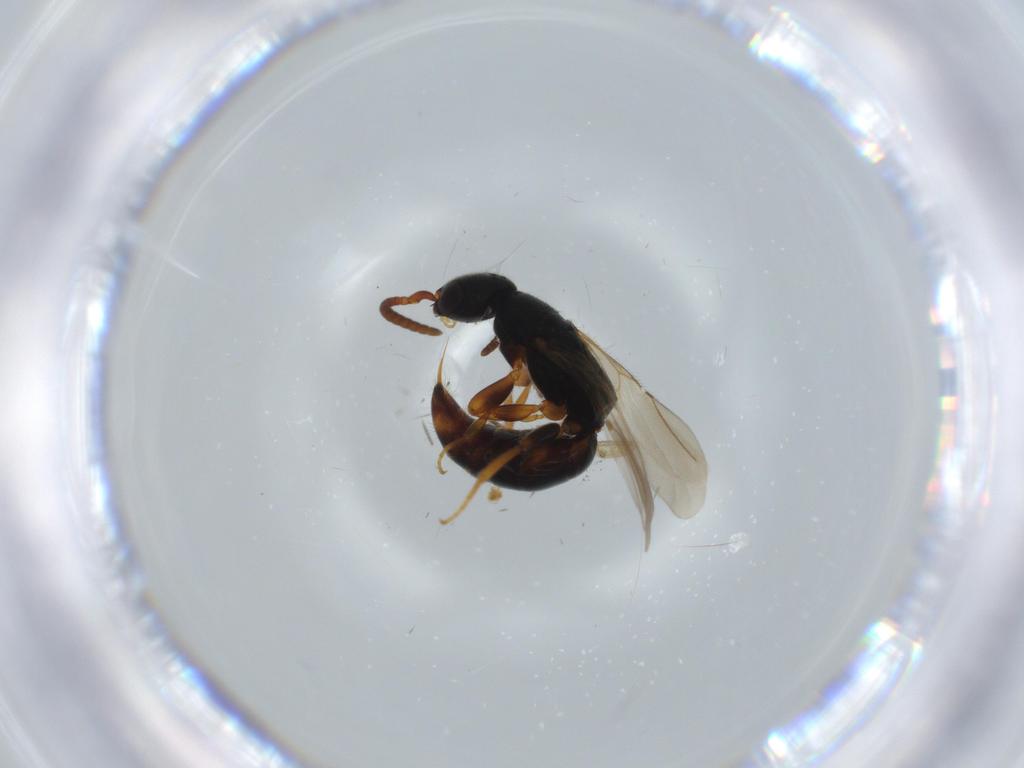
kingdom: Animalia
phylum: Arthropoda
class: Insecta
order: Hymenoptera
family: Bethylidae
